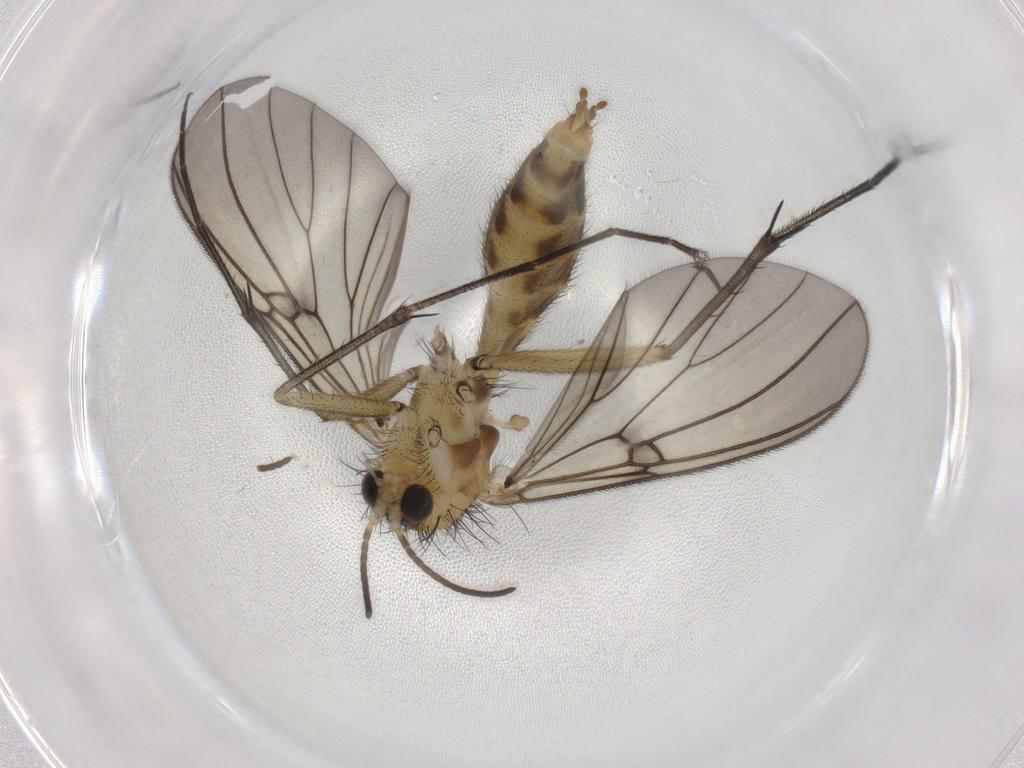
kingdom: Animalia
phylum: Arthropoda
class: Insecta
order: Diptera
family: Mycetophilidae
